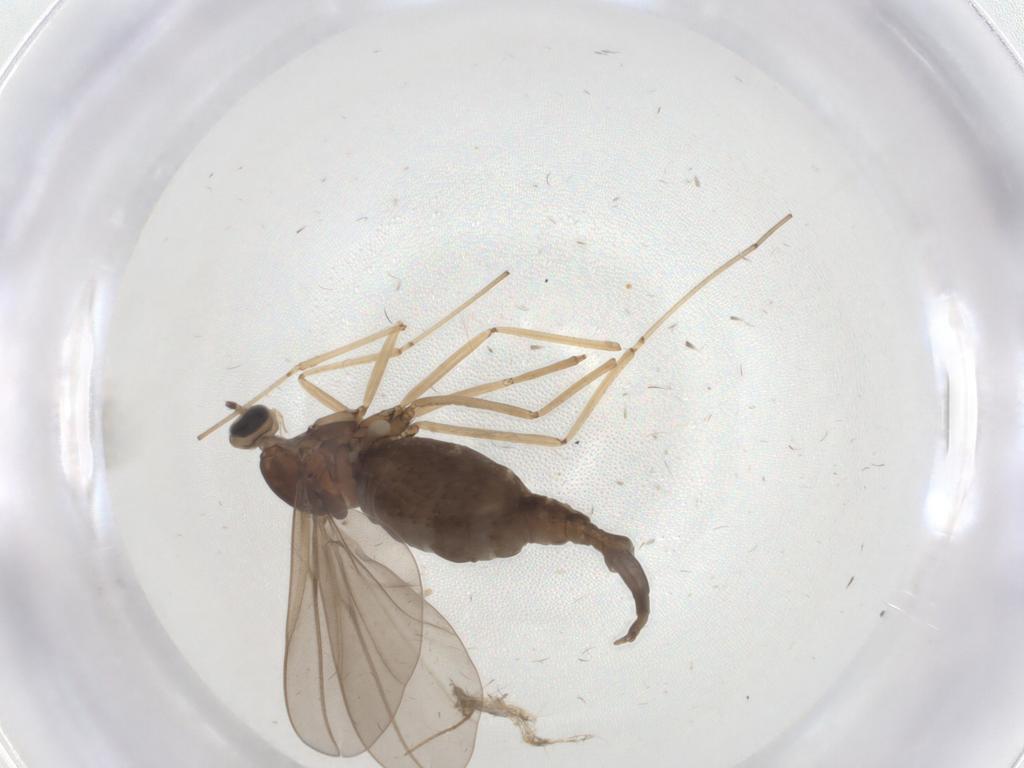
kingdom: Animalia
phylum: Arthropoda
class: Insecta
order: Diptera
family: Cecidomyiidae
